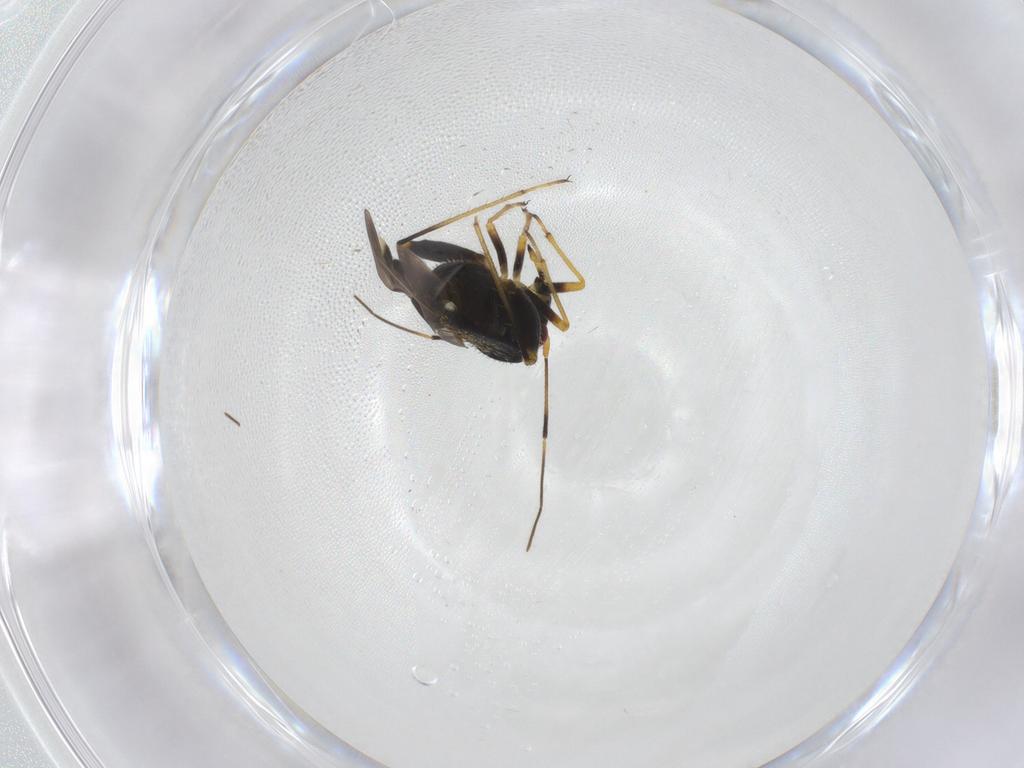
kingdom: Animalia
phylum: Arthropoda
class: Insecta
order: Hemiptera
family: Miridae
